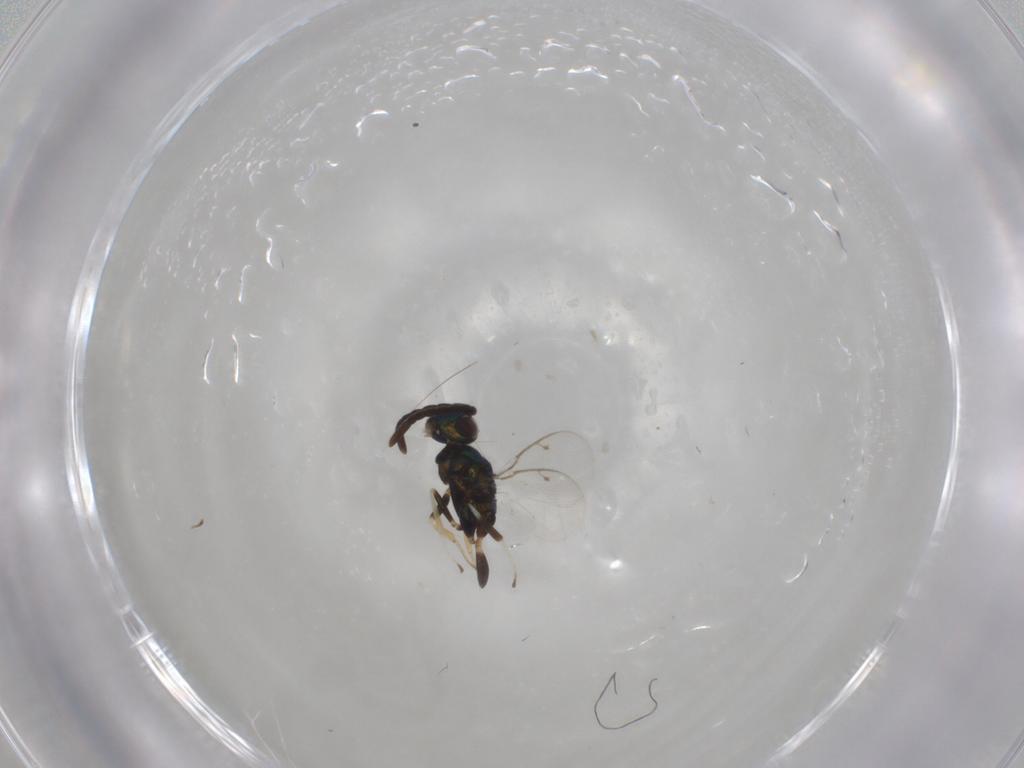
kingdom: Animalia
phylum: Arthropoda
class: Insecta
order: Hymenoptera
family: Eupelmidae
